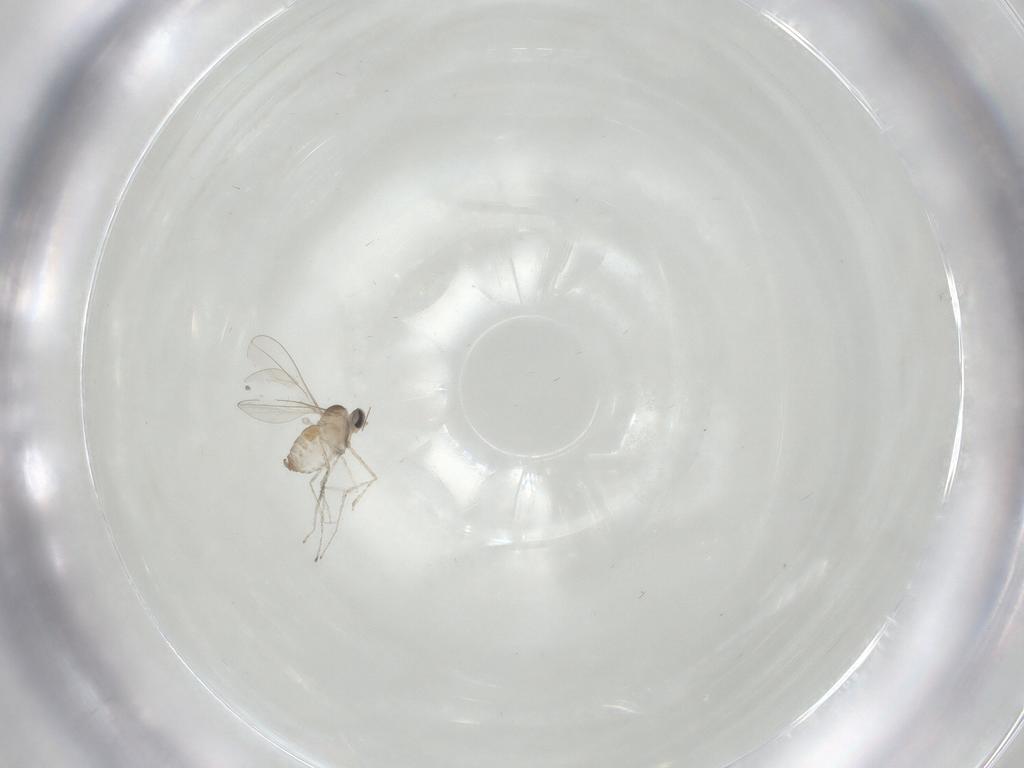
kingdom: Animalia
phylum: Arthropoda
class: Insecta
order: Diptera
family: Cecidomyiidae
